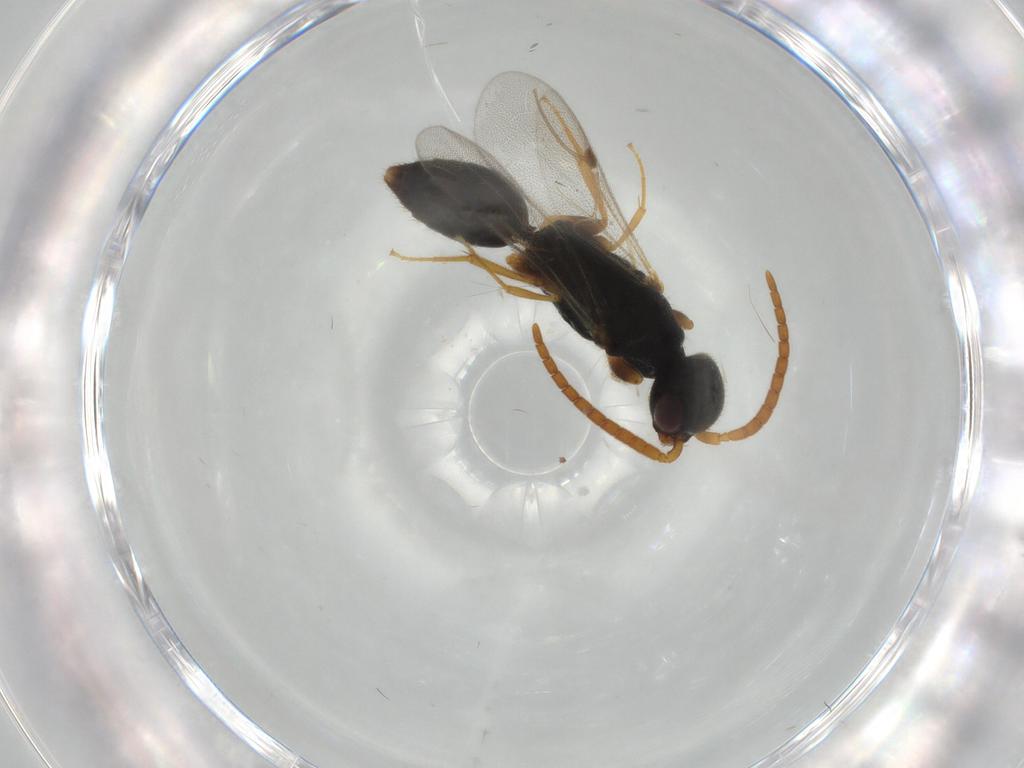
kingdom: Animalia
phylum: Arthropoda
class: Insecta
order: Hymenoptera
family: Bethylidae
